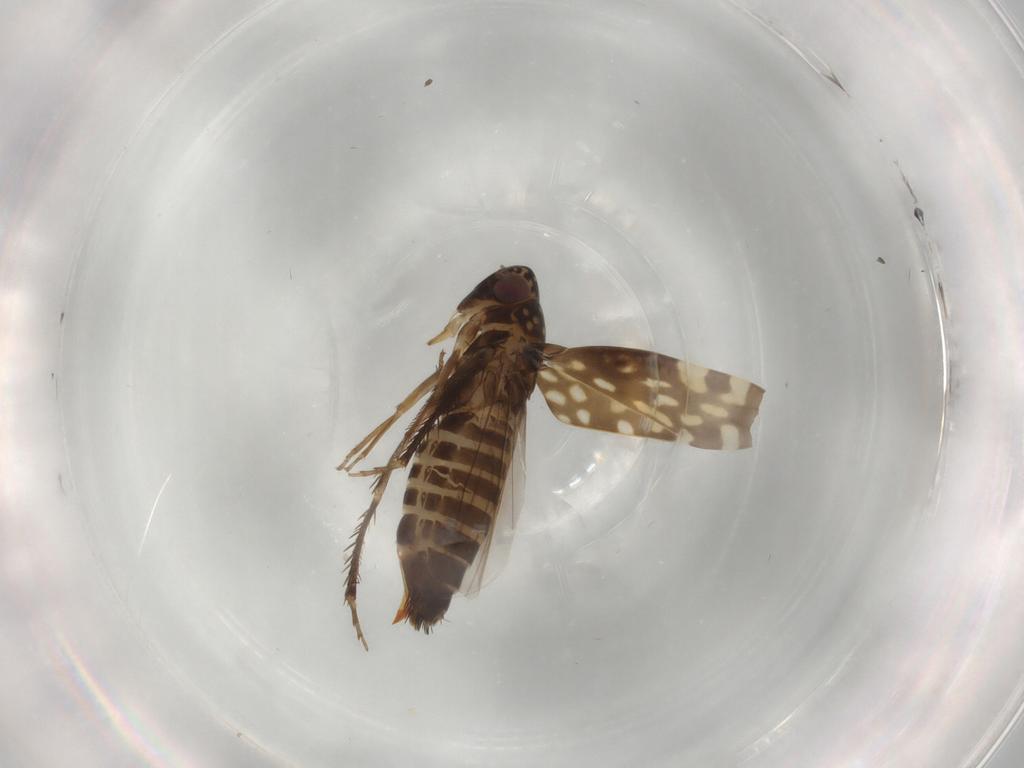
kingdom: Animalia
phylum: Arthropoda
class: Insecta
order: Hemiptera
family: Cicadellidae
